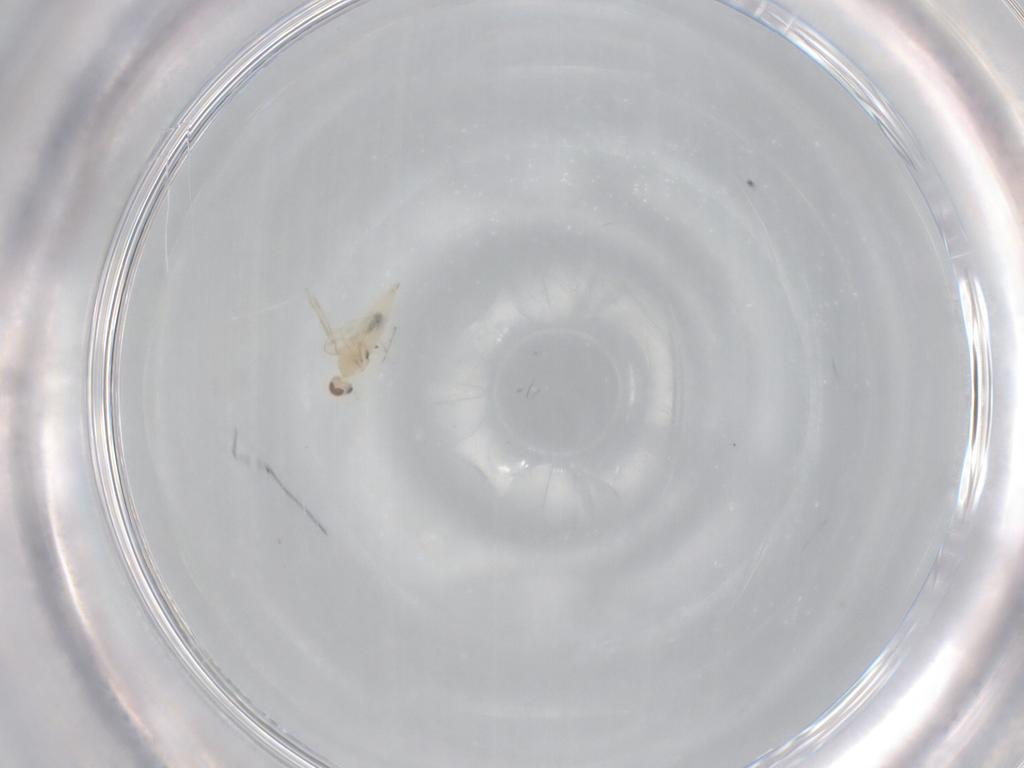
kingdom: Animalia
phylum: Arthropoda
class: Insecta
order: Diptera
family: Cecidomyiidae
